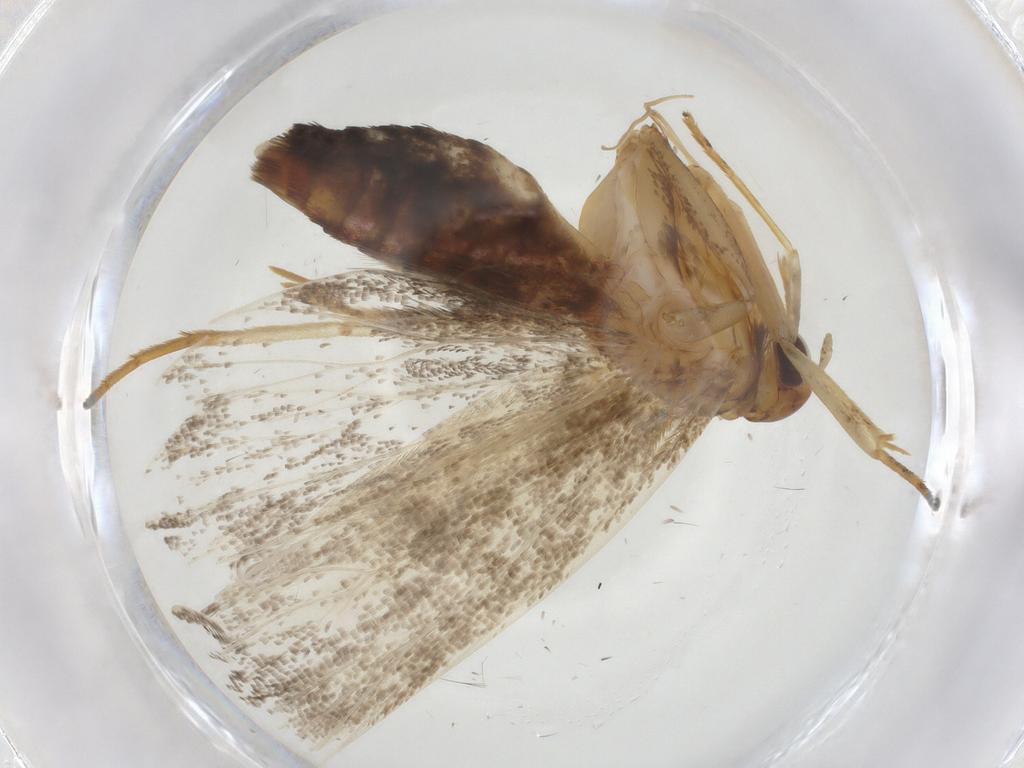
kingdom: Animalia
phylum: Arthropoda
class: Insecta
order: Lepidoptera
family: Lecithoceridae
